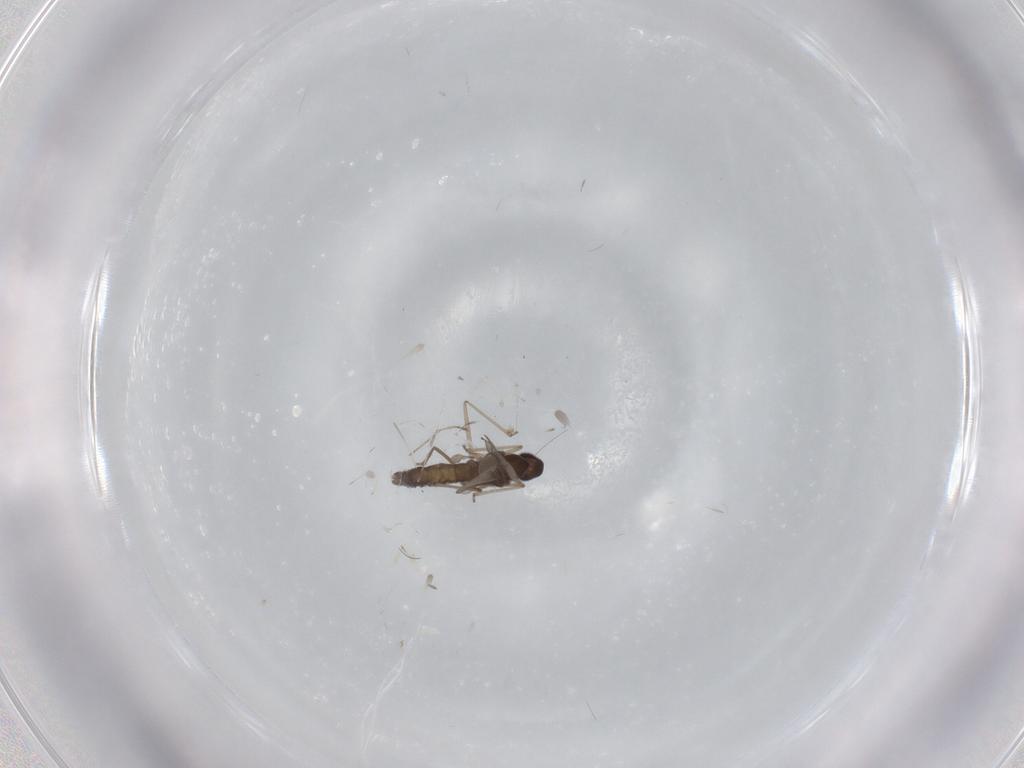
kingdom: Animalia
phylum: Arthropoda
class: Insecta
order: Diptera
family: Cecidomyiidae
